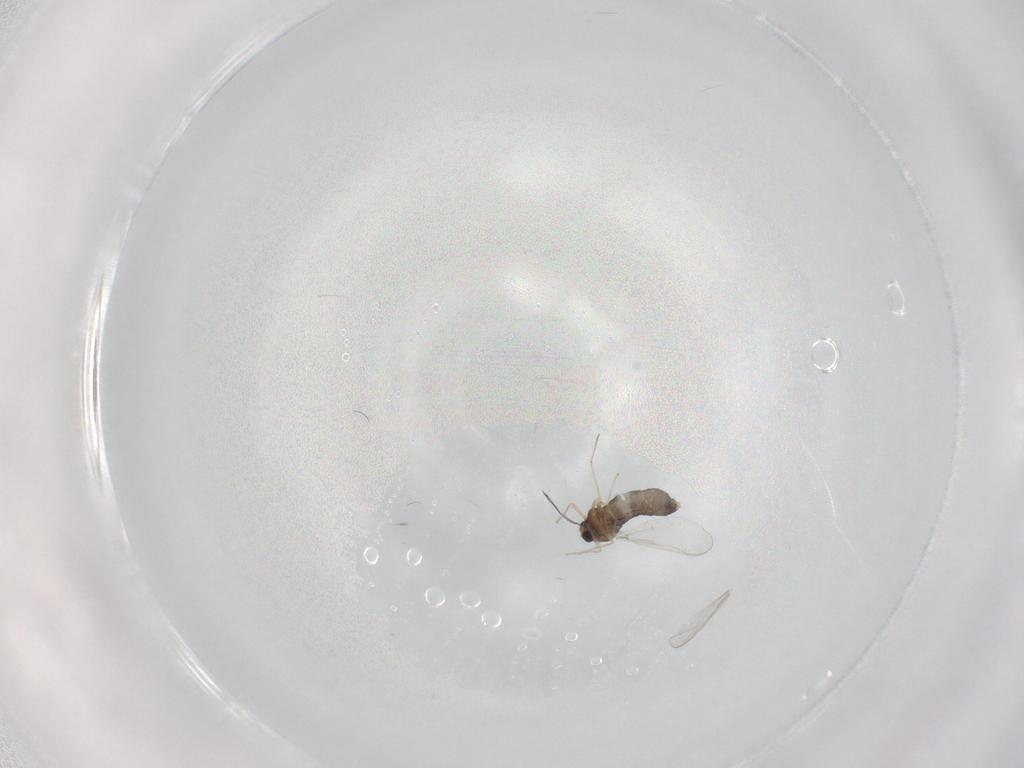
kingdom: Animalia
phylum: Arthropoda
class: Insecta
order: Diptera
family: Chironomidae
